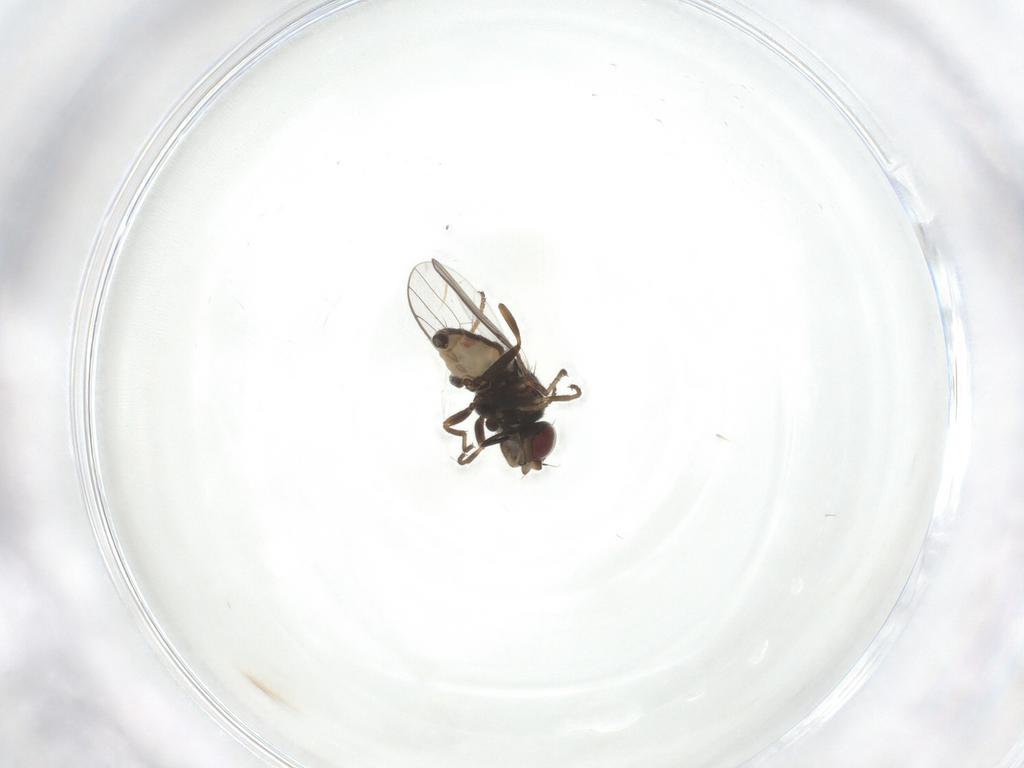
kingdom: Animalia
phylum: Arthropoda
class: Insecta
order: Diptera
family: Chloropidae
